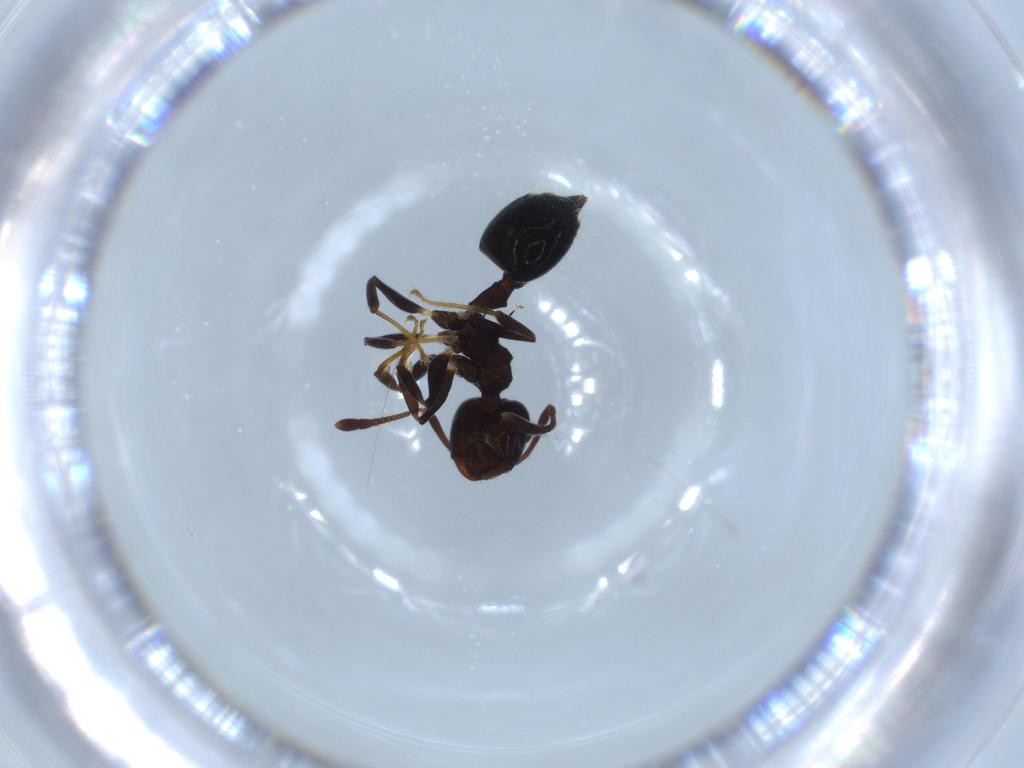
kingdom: Animalia
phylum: Arthropoda
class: Insecta
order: Hymenoptera
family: Formicidae
